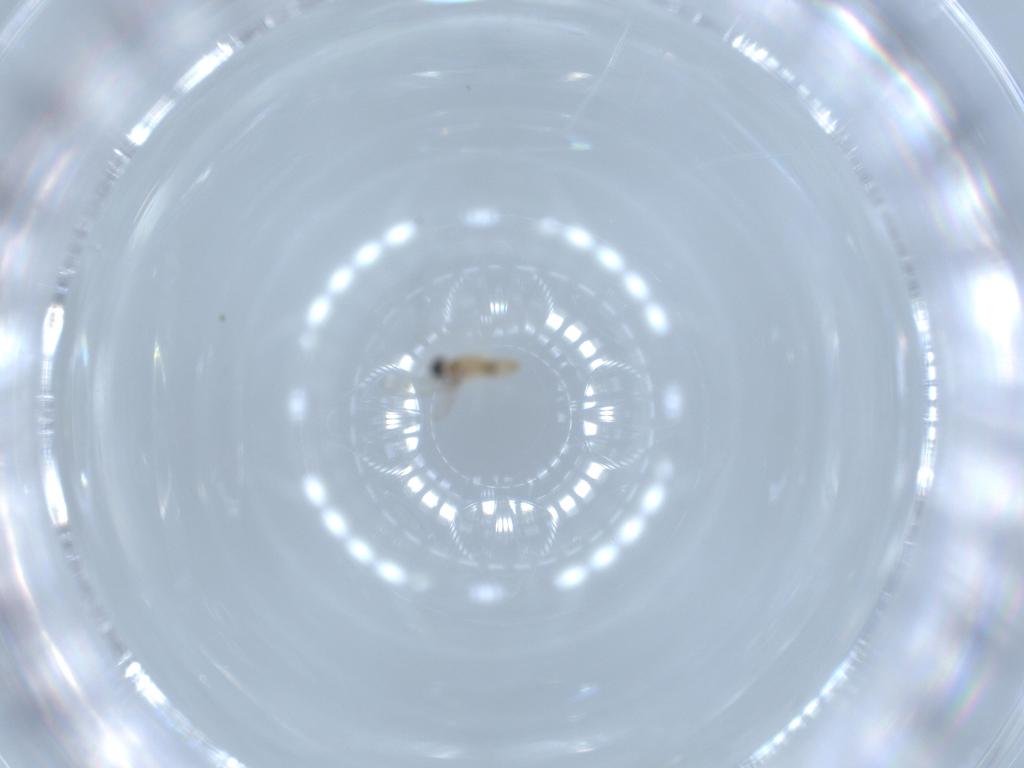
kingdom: Animalia
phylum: Arthropoda
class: Insecta
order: Diptera
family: Cecidomyiidae
